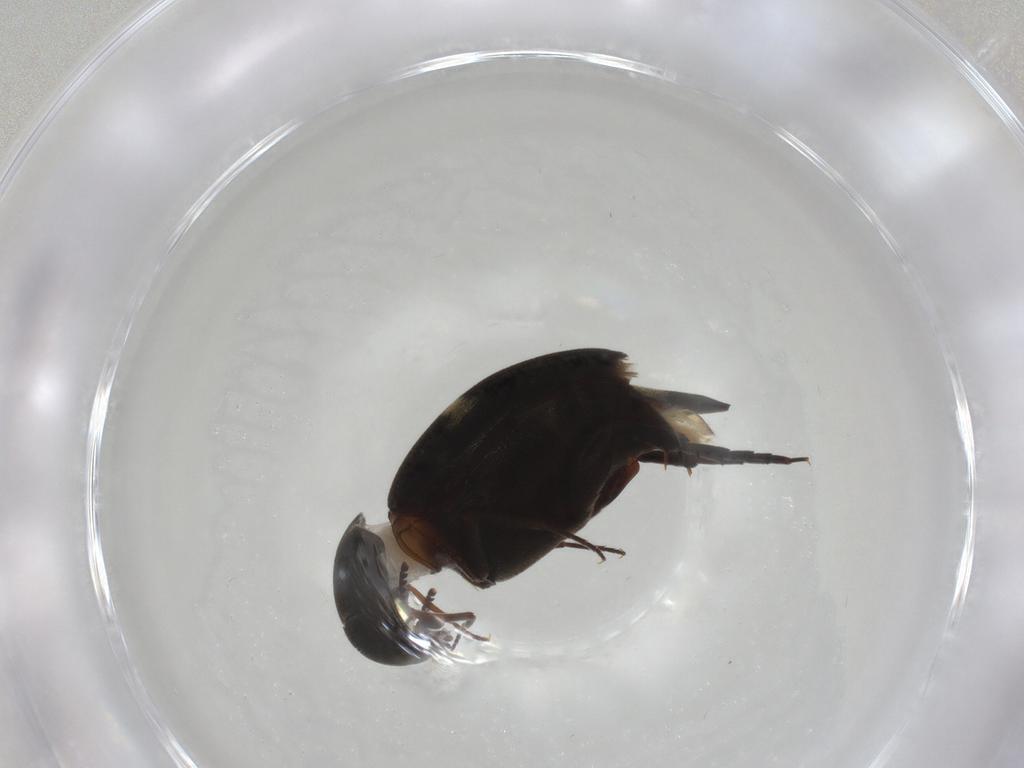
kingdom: Animalia
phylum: Arthropoda
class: Insecta
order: Coleoptera
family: Mordellidae
